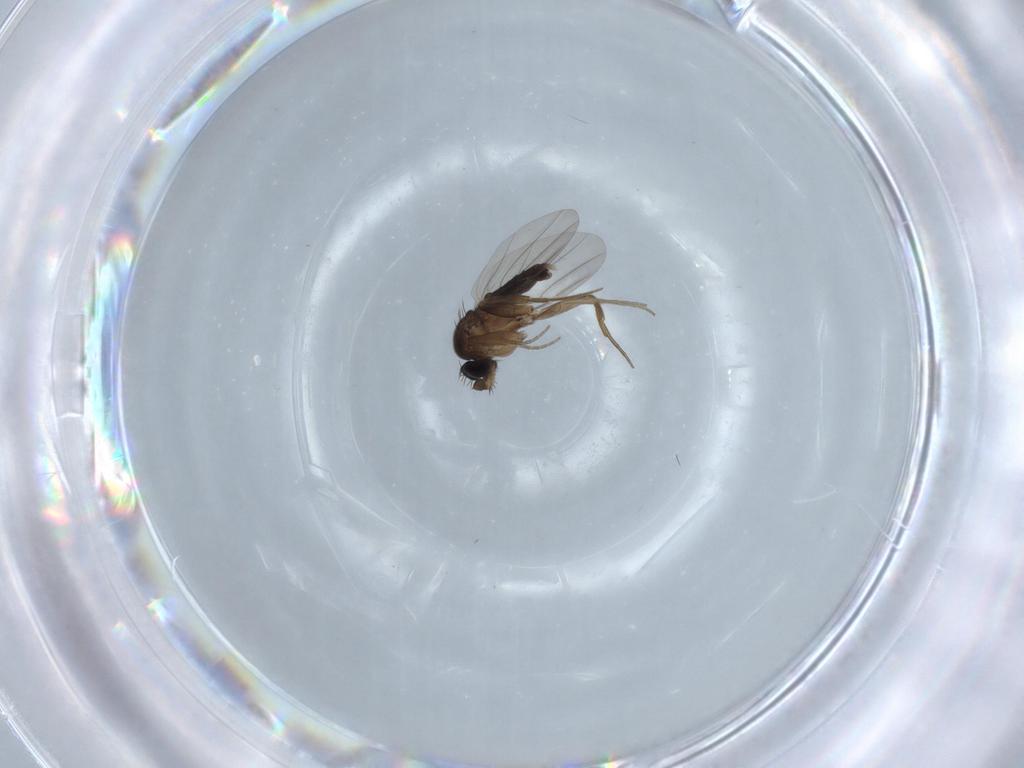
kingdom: Animalia
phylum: Arthropoda
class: Insecta
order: Diptera
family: Phoridae
